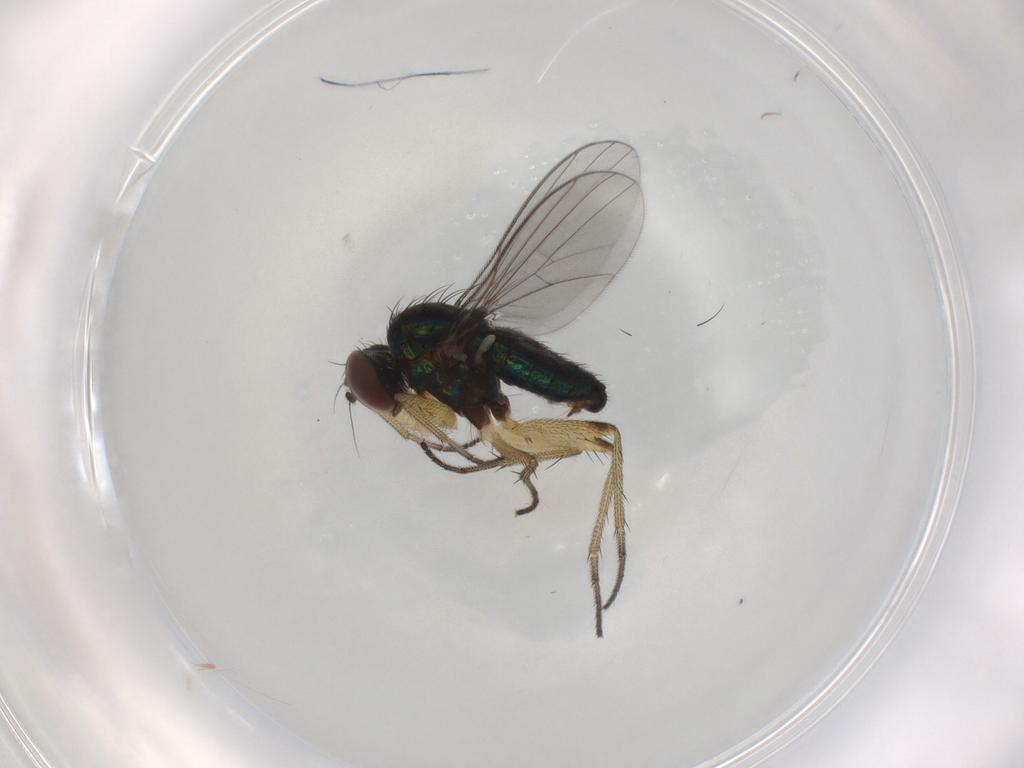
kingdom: Animalia
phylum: Arthropoda
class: Insecta
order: Diptera
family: Dolichopodidae
